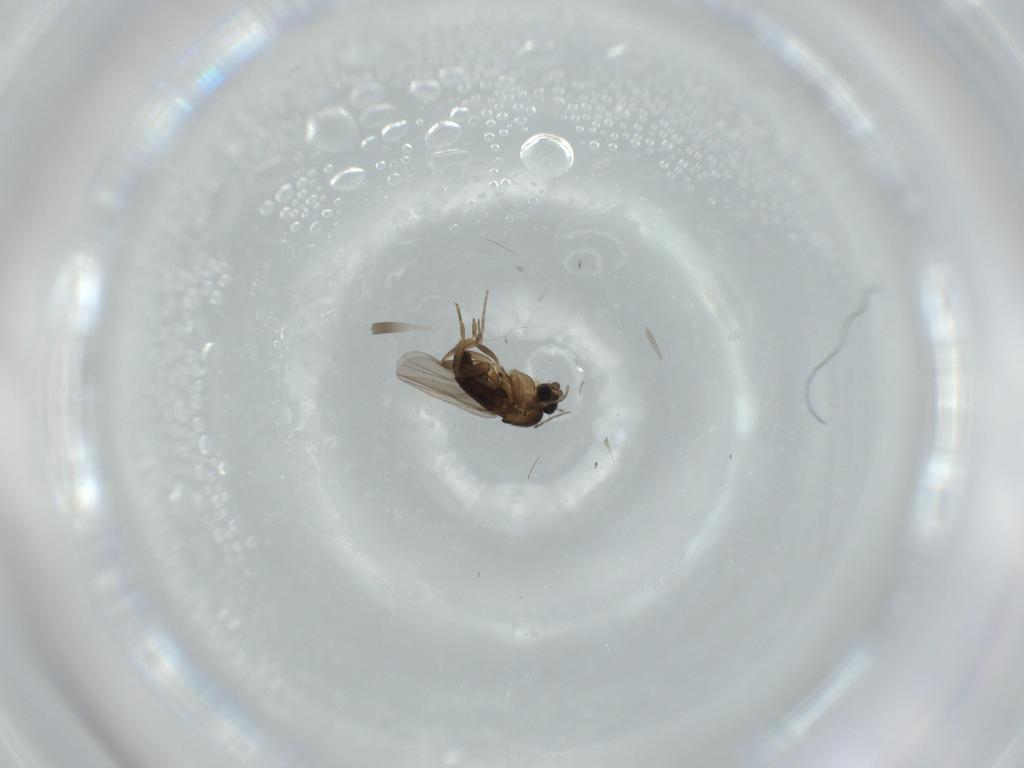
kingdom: Animalia
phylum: Arthropoda
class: Insecta
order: Diptera
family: Phoridae
